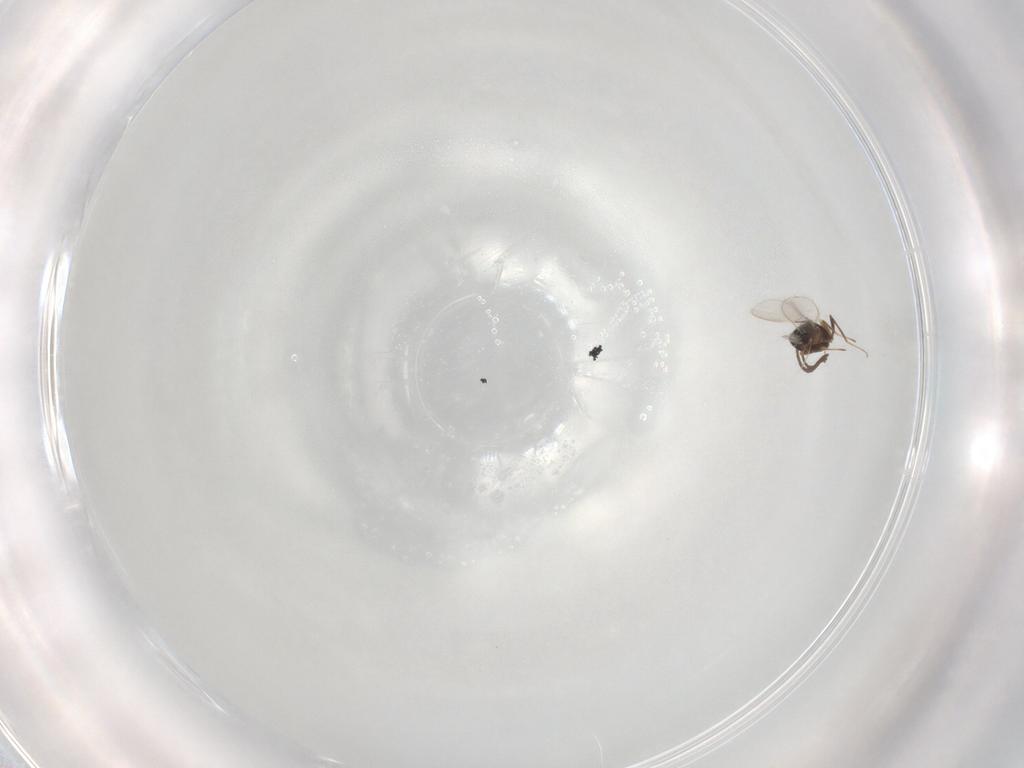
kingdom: Animalia
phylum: Arthropoda
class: Insecta
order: Hymenoptera
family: Mymaridae
